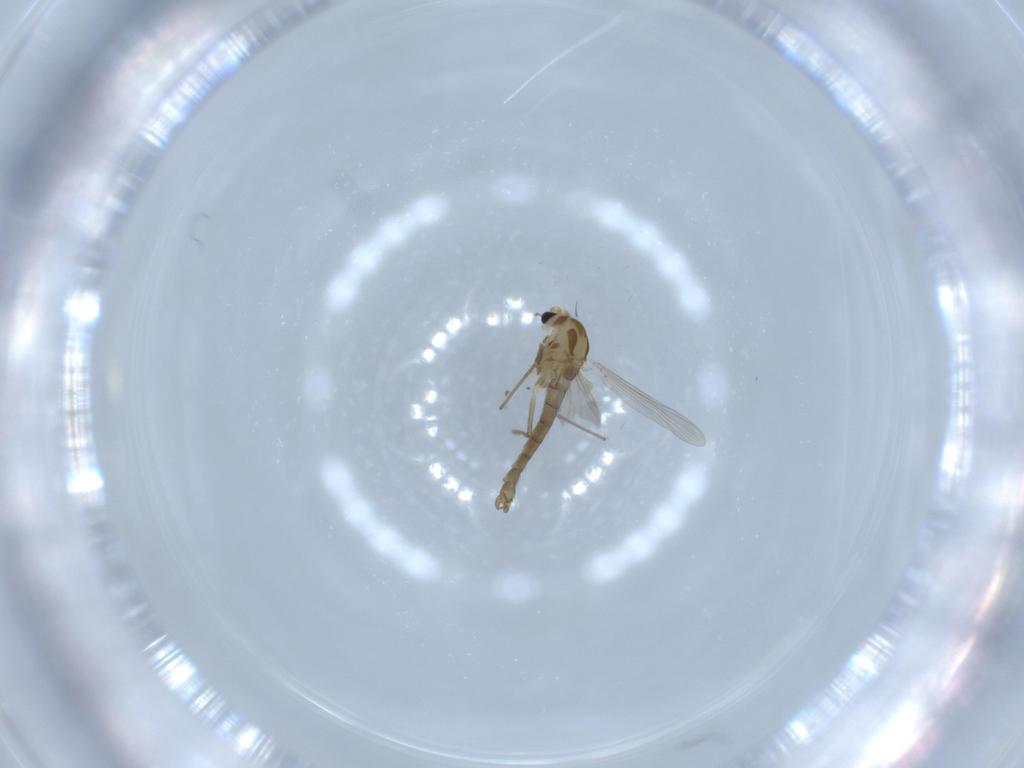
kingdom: Animalia
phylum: Arthropoda
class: Insecta
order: Diptera
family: Chironomidae
